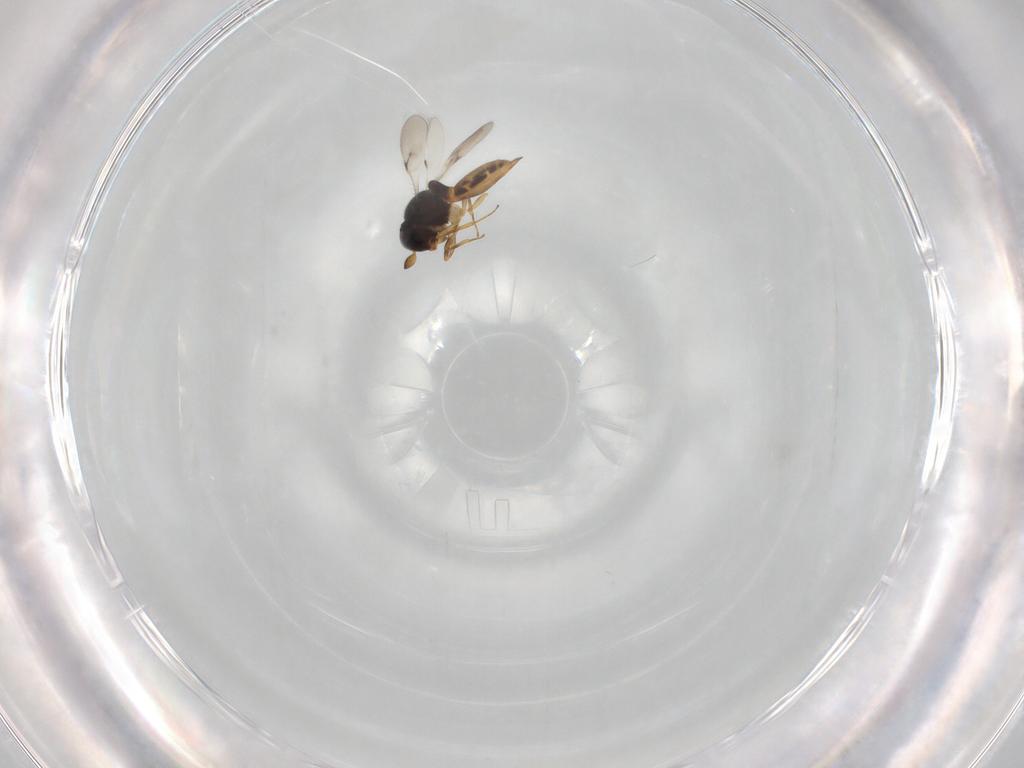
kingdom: Animalia
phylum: Arthropoda
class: Insecta
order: Hymenoptera
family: Scelionidae
